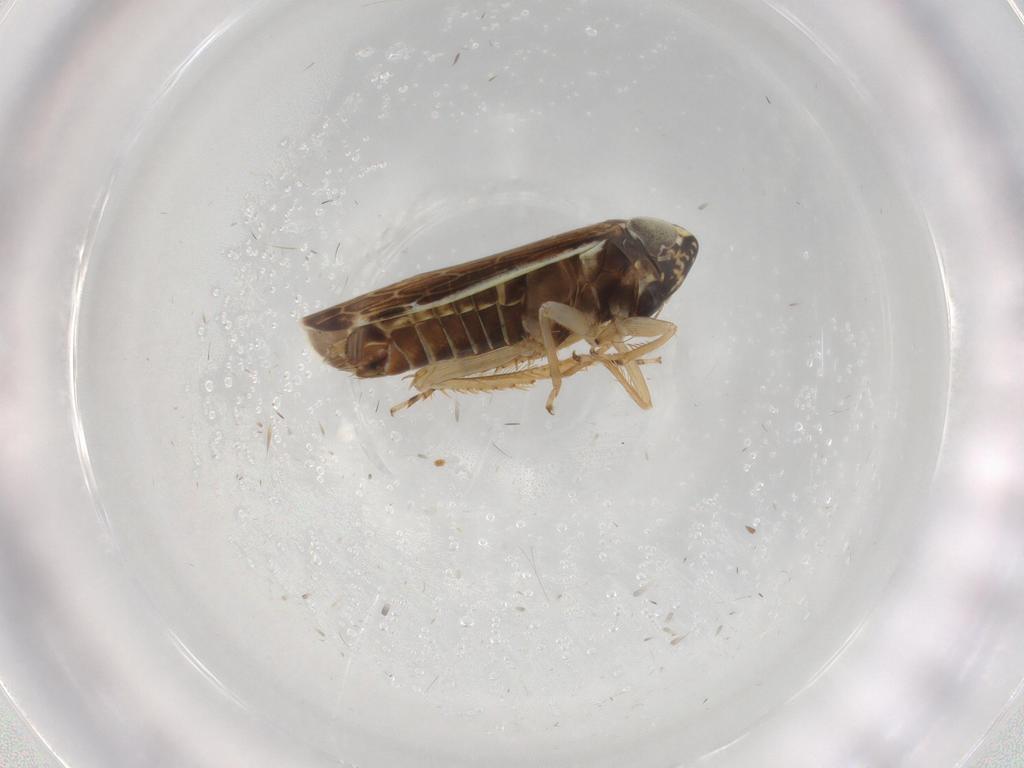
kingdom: Animalia
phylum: Arthropoda
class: Insecta
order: Hemiptera
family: Cicadellidae
